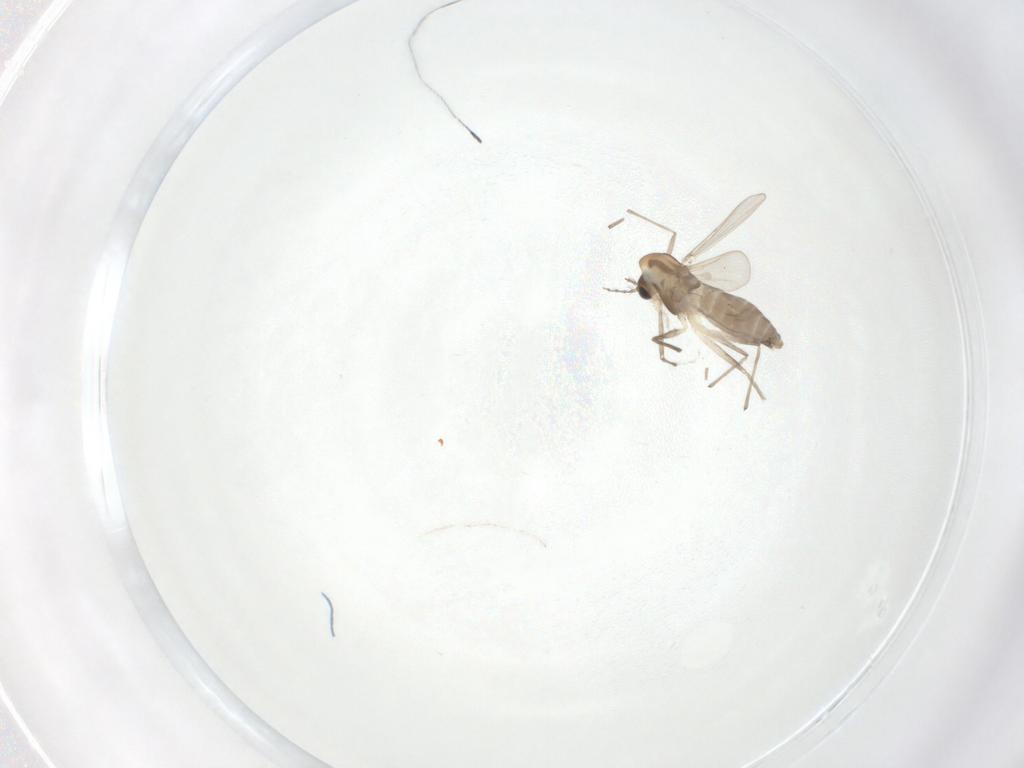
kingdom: Animalia
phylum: Arthropoda
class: Insecta
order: Diptera
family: Chironomidae
